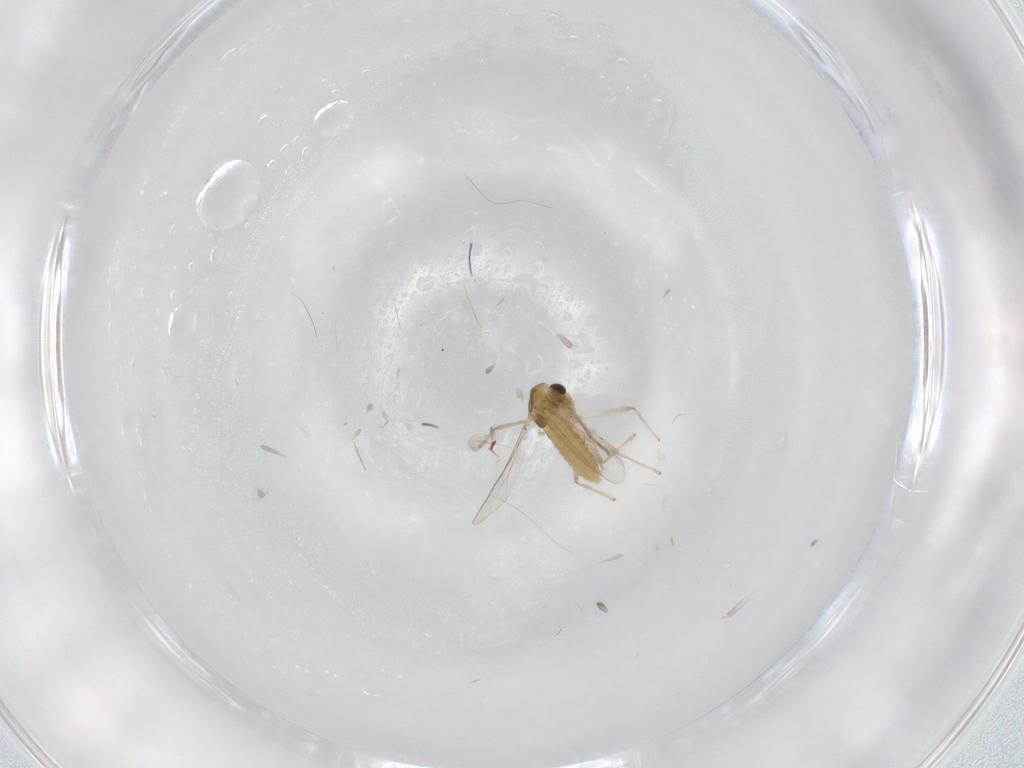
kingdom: Animalia
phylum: Arthropoda
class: Insecta
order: Diptera
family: Chironomidae
